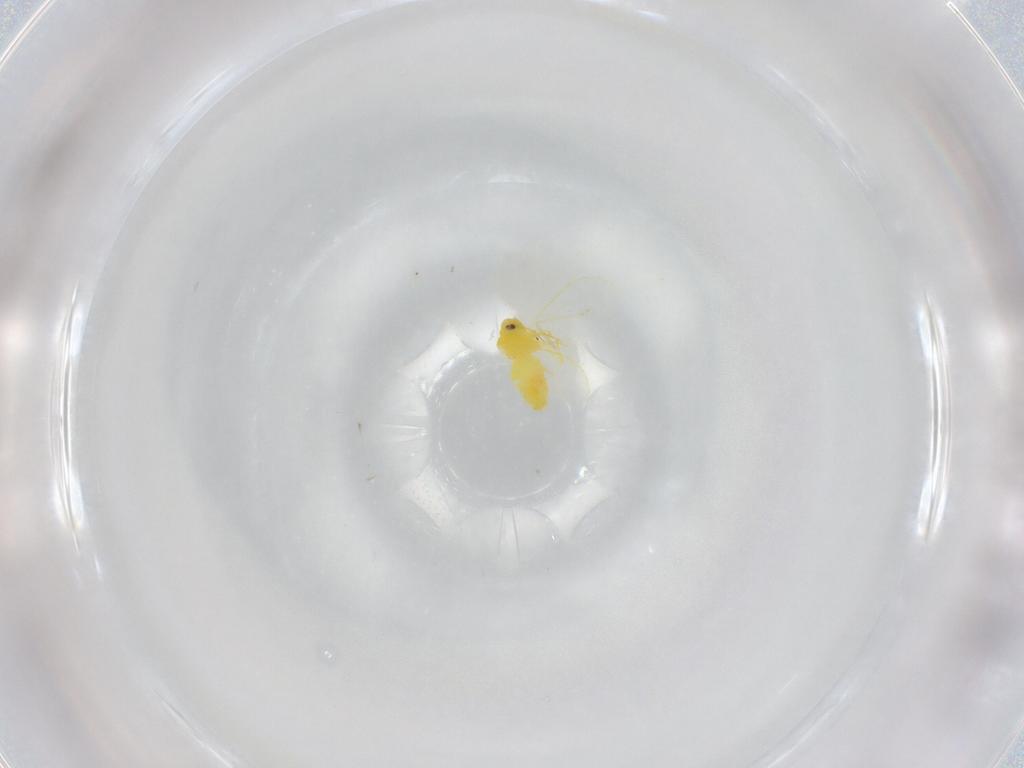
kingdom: Animalia
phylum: Arthropoda
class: Insecta
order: Hemiptera
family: Aleyrodidae
